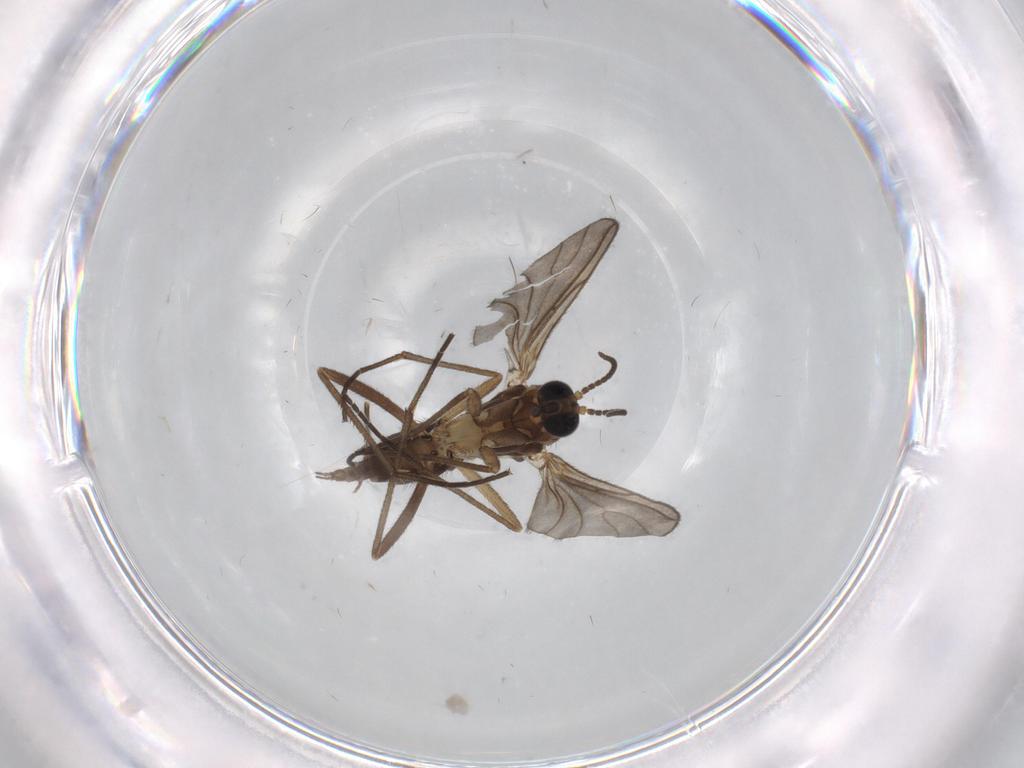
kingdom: Animalia
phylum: Arthropoda
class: Insecta
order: Diptera
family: Sciaridae
